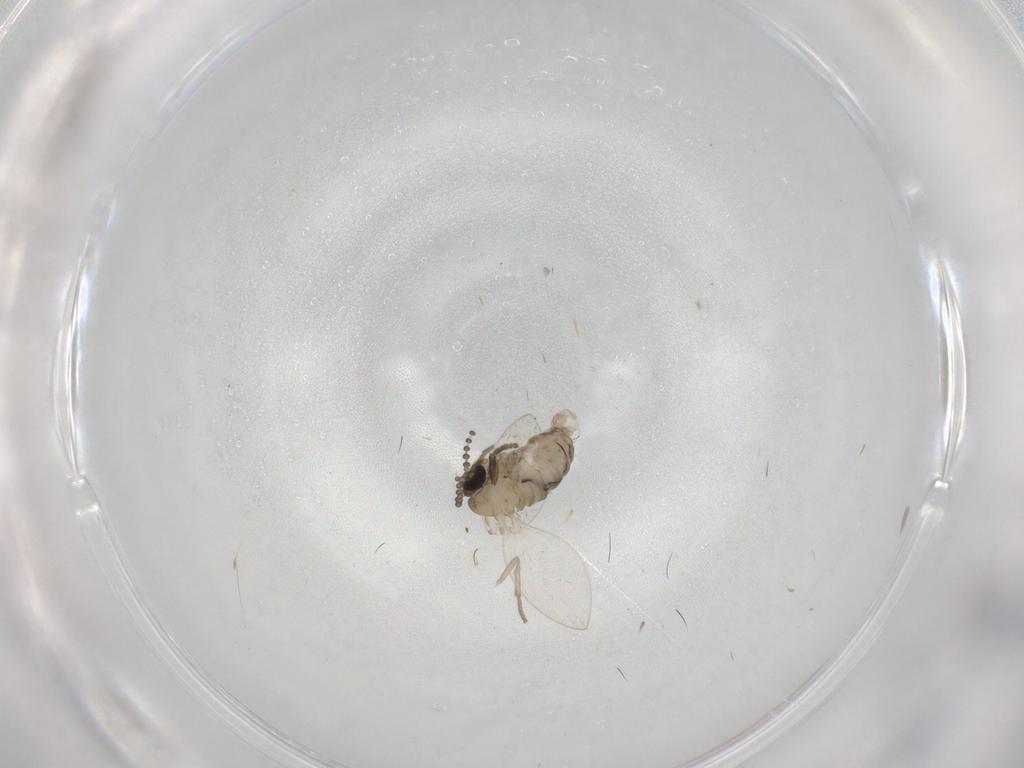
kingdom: Animalia
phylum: Arthropoda
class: Insecta
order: Diptera
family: Psychodidae
